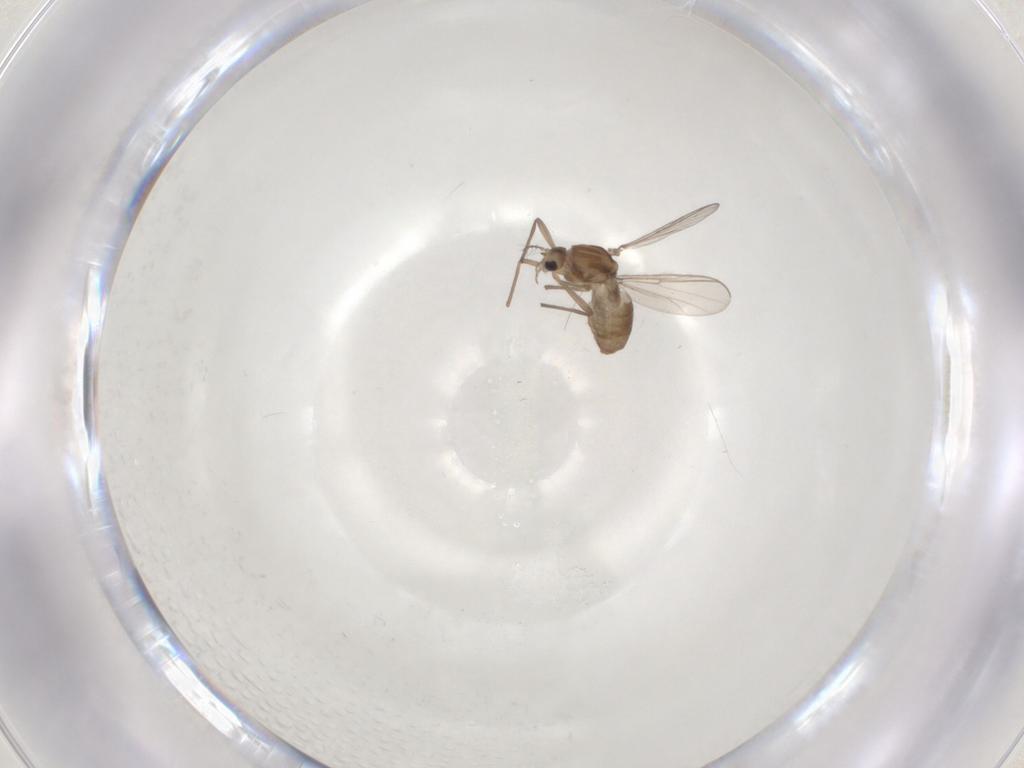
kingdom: Animalia
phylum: Arthropoda
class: Insecta
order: Diptera
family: Chironomidae
